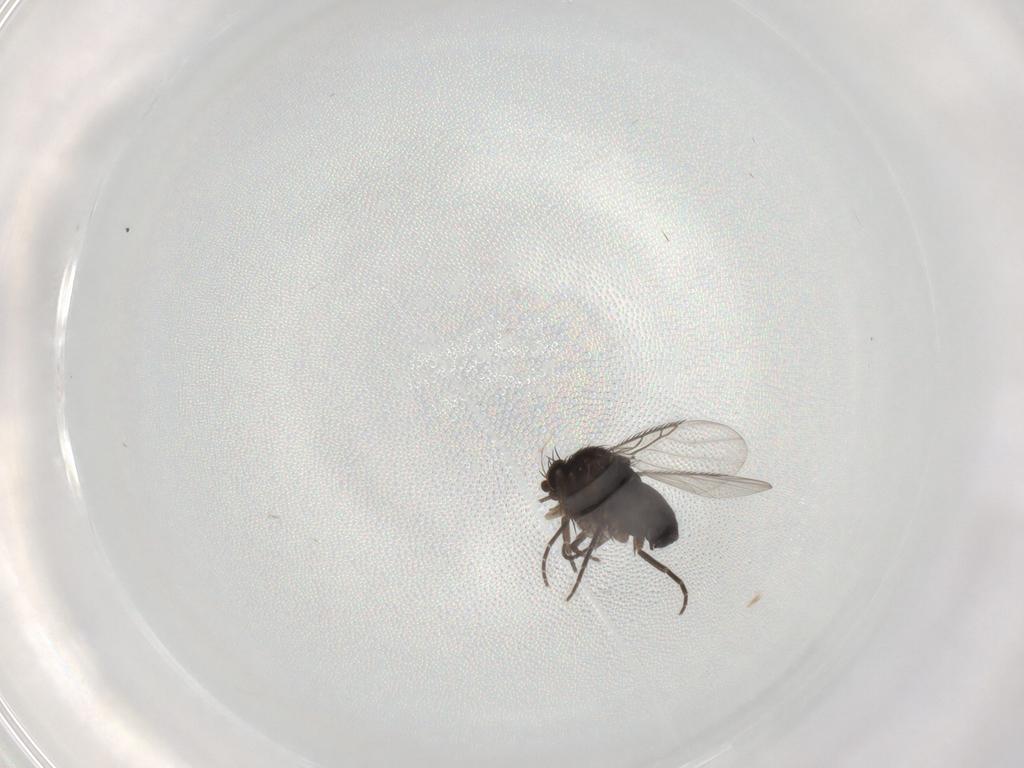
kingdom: Animalia
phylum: Arthropoda
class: Insecta
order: Diptera
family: Phoridae
